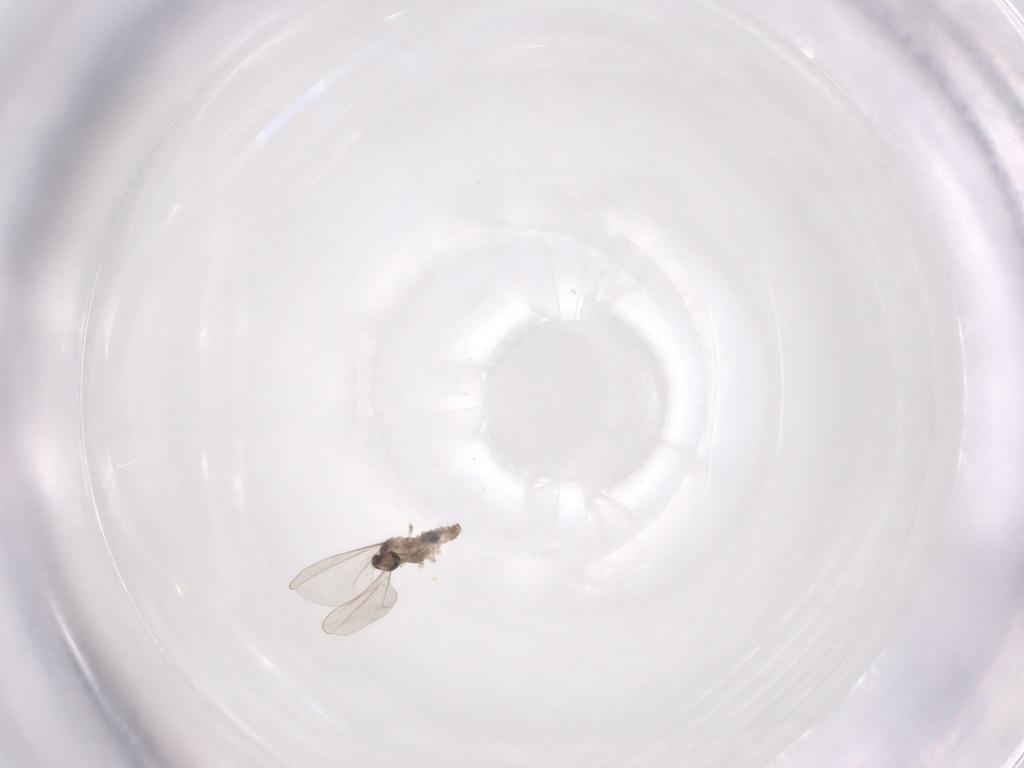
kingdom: Animalia
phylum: Arthropoda
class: Insecta
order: Diptera
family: Cecidomyiidae
